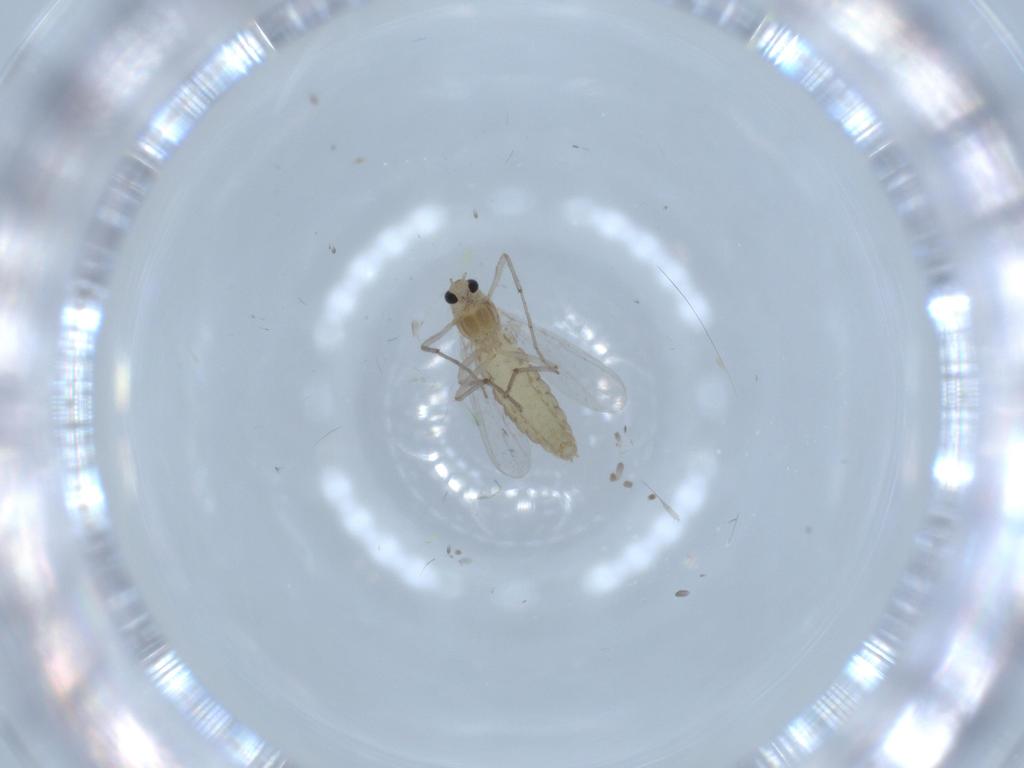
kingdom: Animalia
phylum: Arthropoda
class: Insecta
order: Diptera
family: Chironomidae
